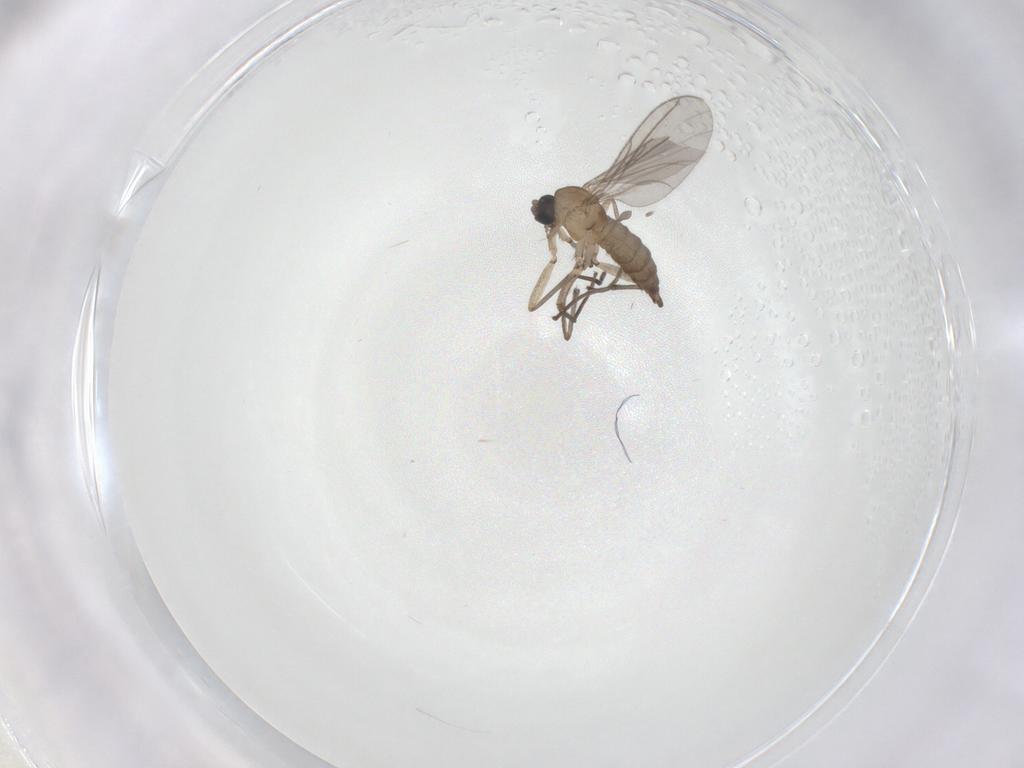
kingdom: Animalia
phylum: Arthropoda
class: Insecta
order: Diptera
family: Sciaridae
